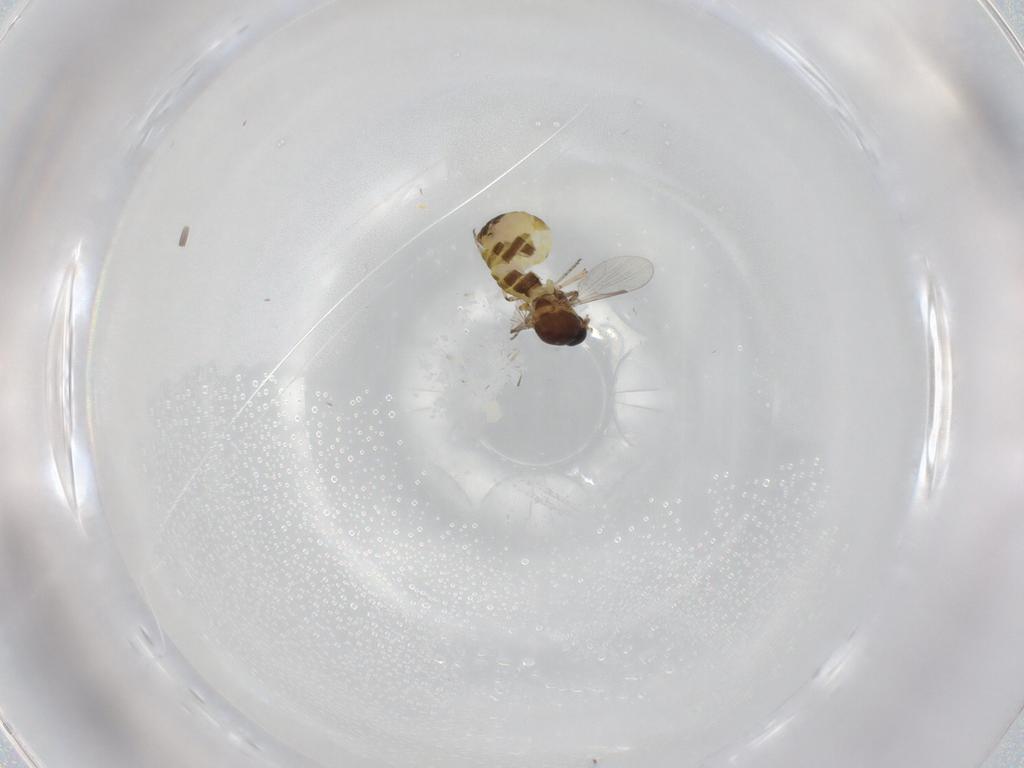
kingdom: Animalia
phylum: Arthropoda
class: Insecta
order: Diptera
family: Ceratopogonidae
